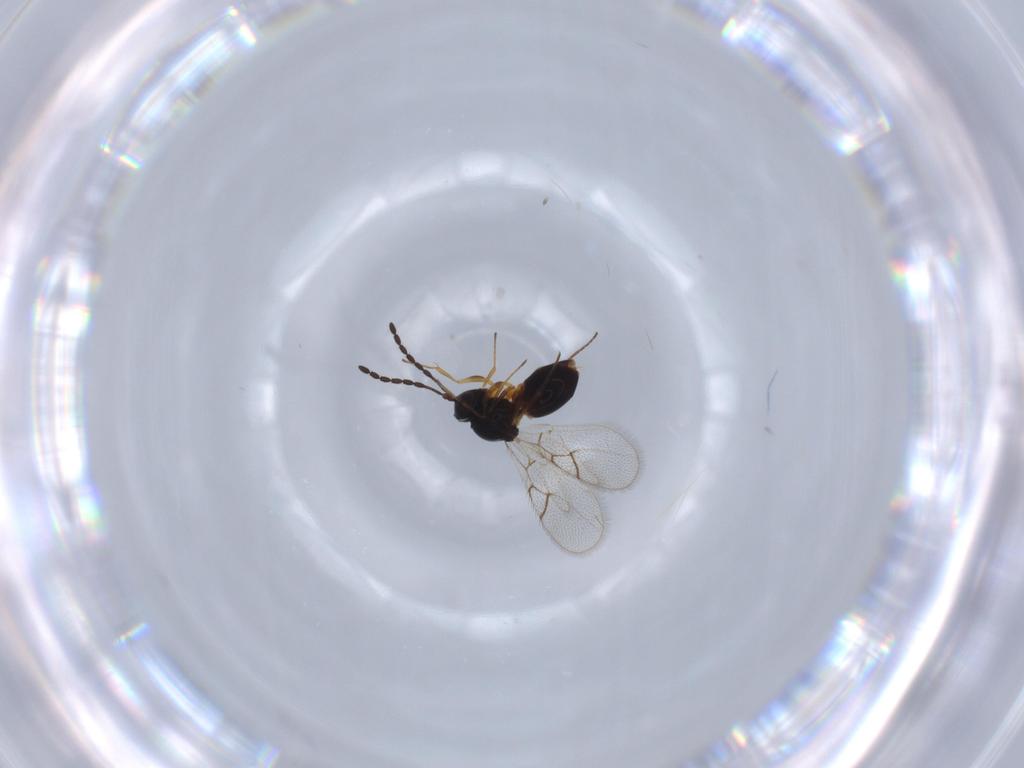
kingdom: Animalia
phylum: Arthropoda
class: Insecta
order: Hymenoptera
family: Figitidae
